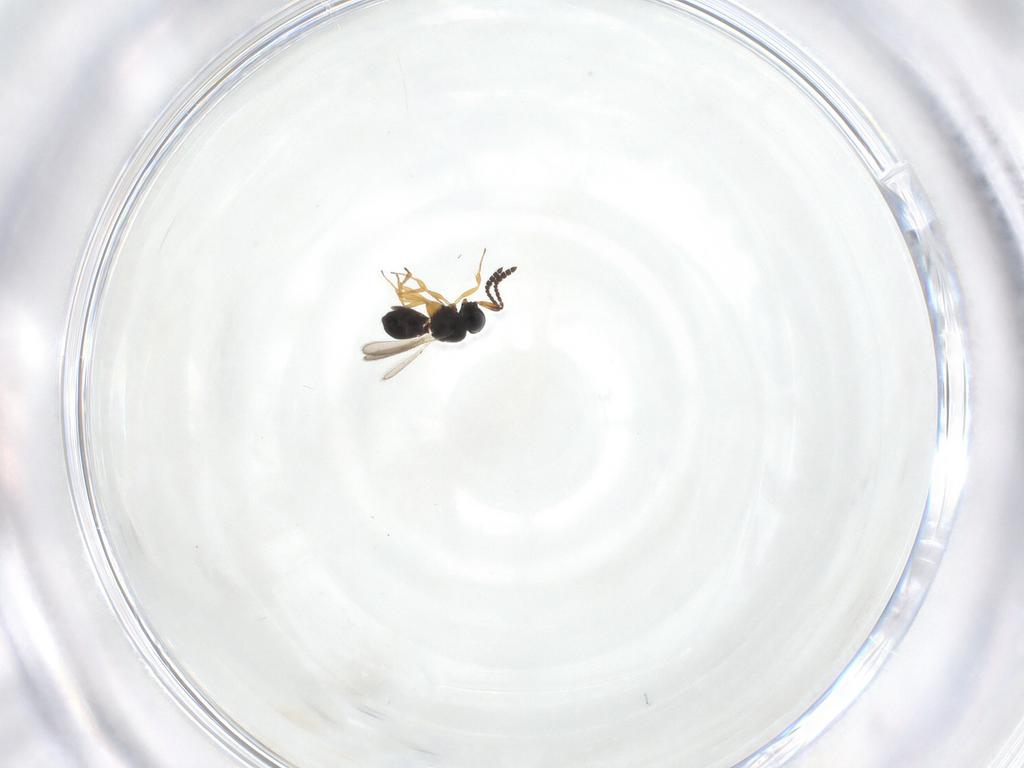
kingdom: Animalia
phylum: Arthropoda
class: Insecta
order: Hymenoptera
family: Scelionidae
